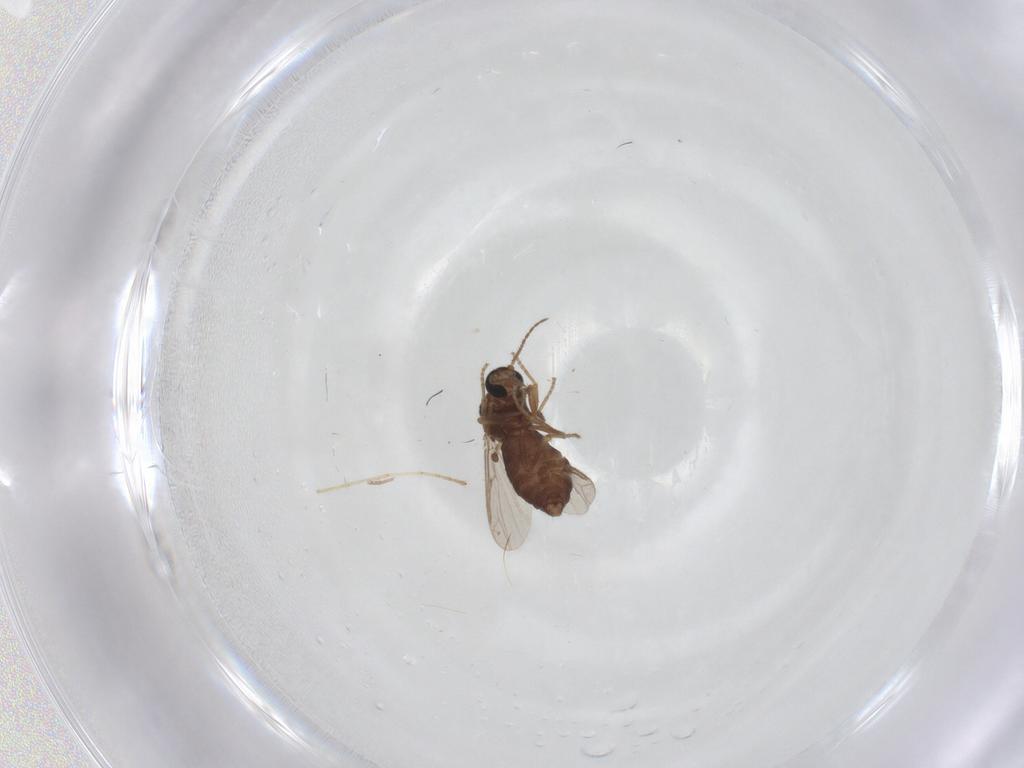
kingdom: Animalia
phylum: Arthropoda
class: Insecta
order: Diptera
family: Ceratopogonidae
